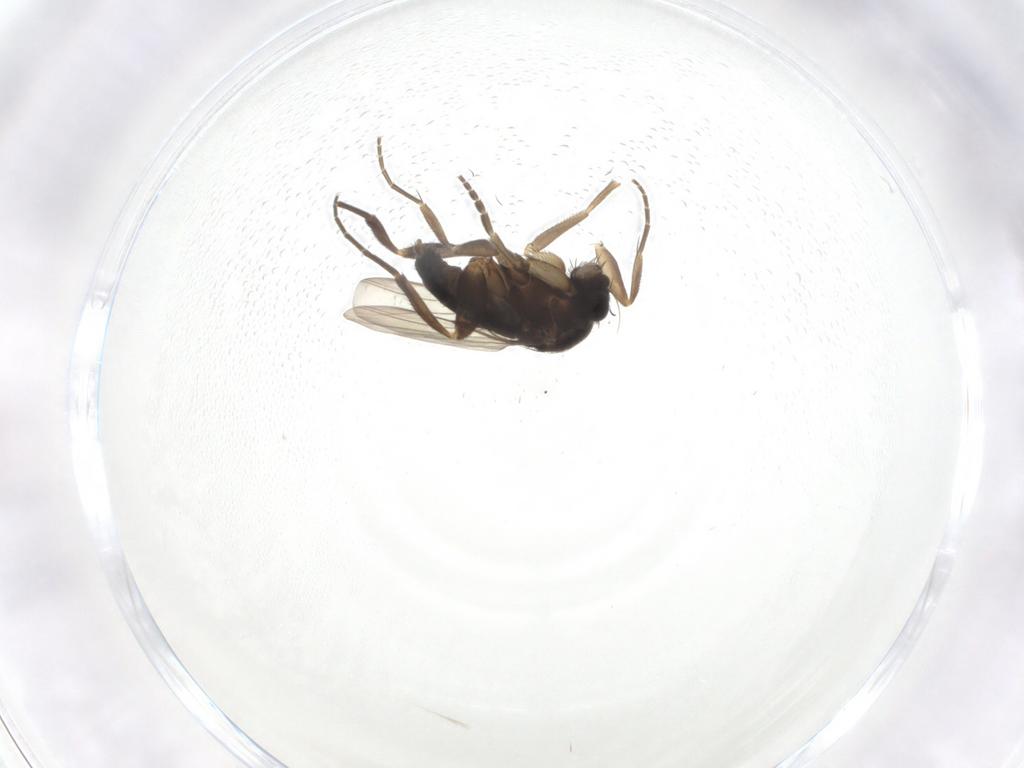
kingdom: Animalia
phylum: Arthropoda
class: Insecta
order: Diptera
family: Phoridae
